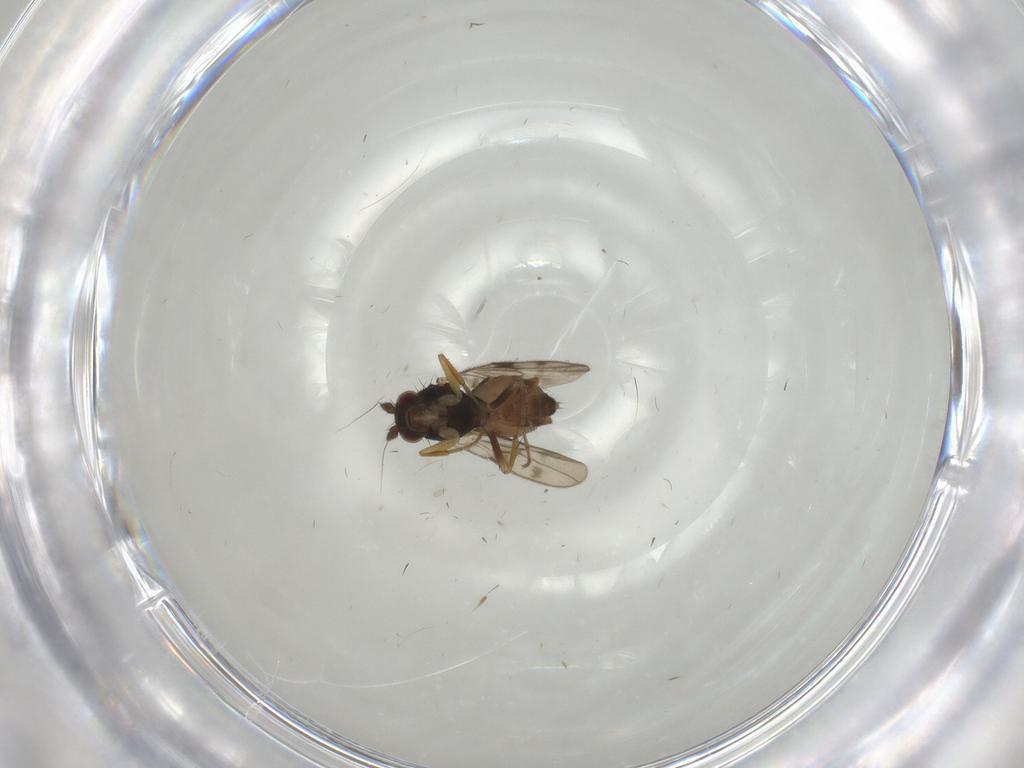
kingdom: Animalia
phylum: Arthropoda
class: Insecta
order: Diptera
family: Sphaeroceridae
